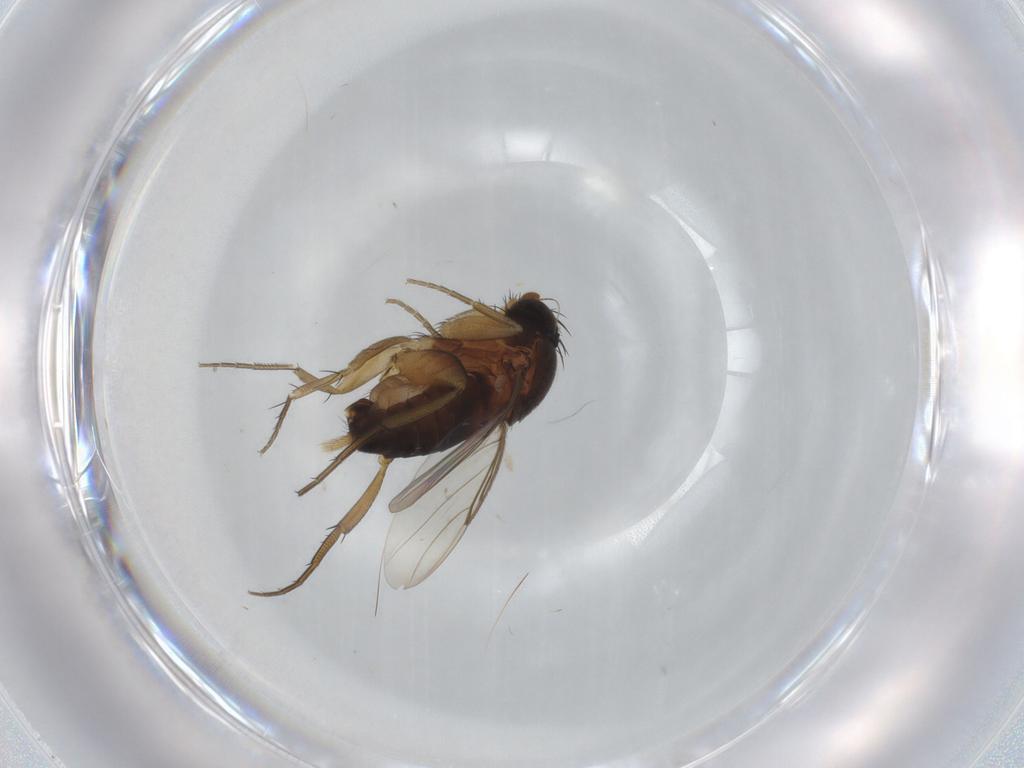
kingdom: Animalia
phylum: Arthropoda
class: Insecta
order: Diptera
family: Phoridae
